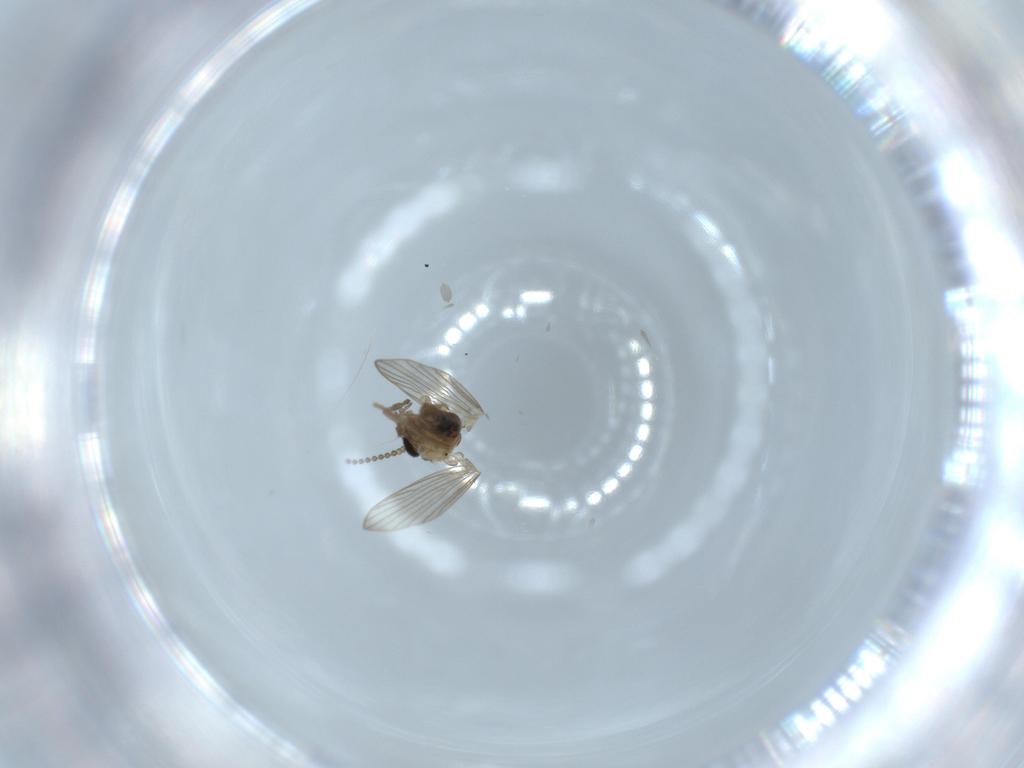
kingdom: Animalia
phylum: Arthropoda
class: Insecta
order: Diptera
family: Psychodidae
